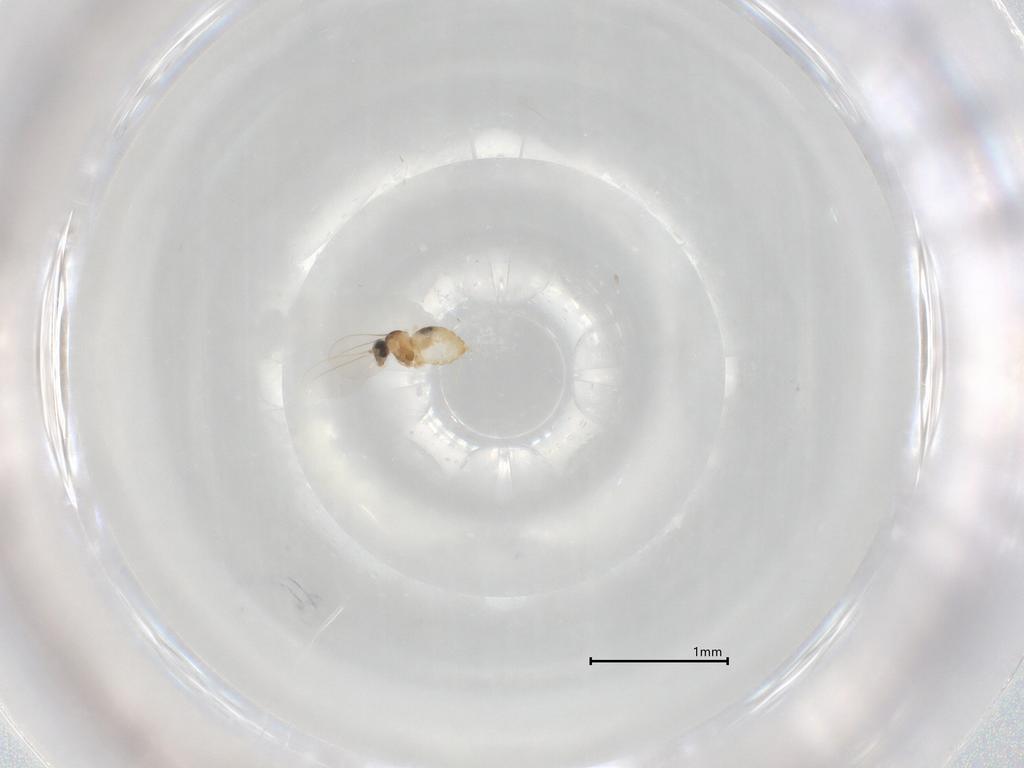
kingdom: Animalia
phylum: Arthropoda
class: Insecta
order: Diptera
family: Cecidomyiidae
